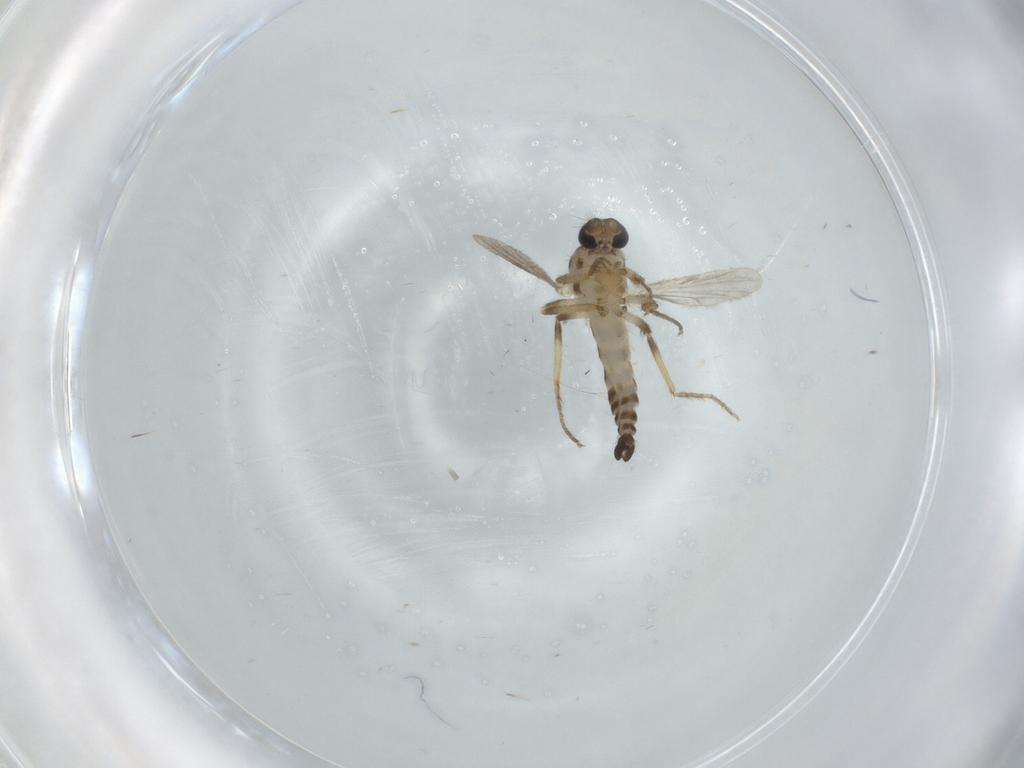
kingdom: Animalia
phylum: Arthropoda
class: Insecta
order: Diptera
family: Ceratopogonidae
